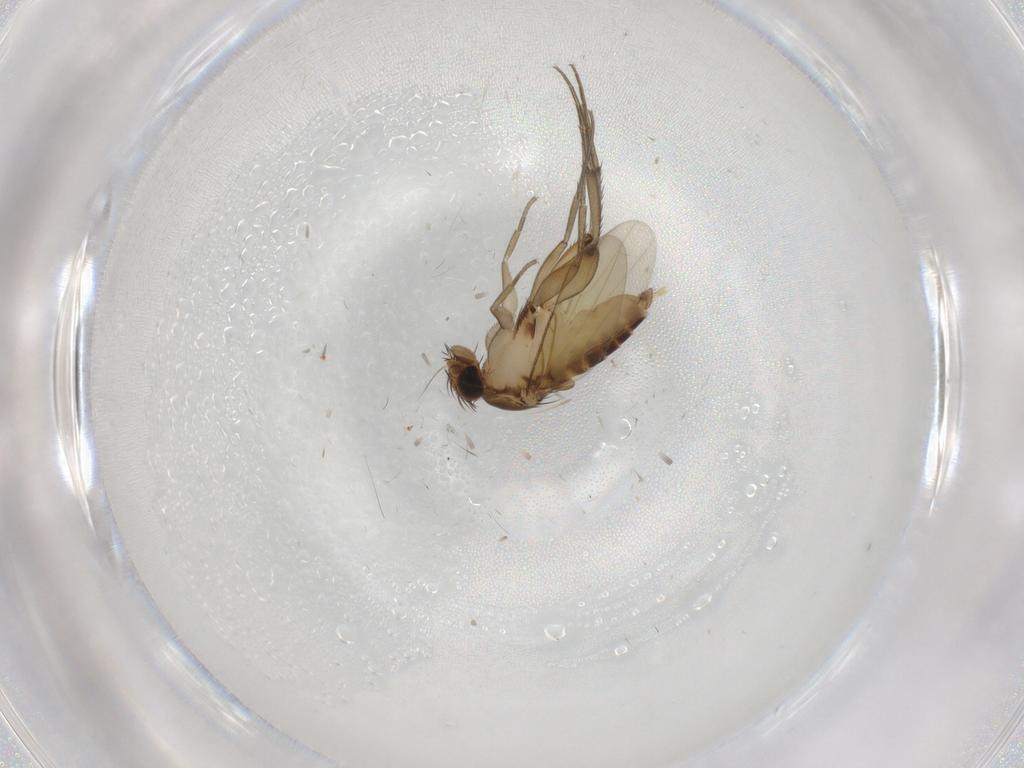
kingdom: Animalia
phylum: Arthropoda
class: Insecta
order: Diptera
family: Phoridae
